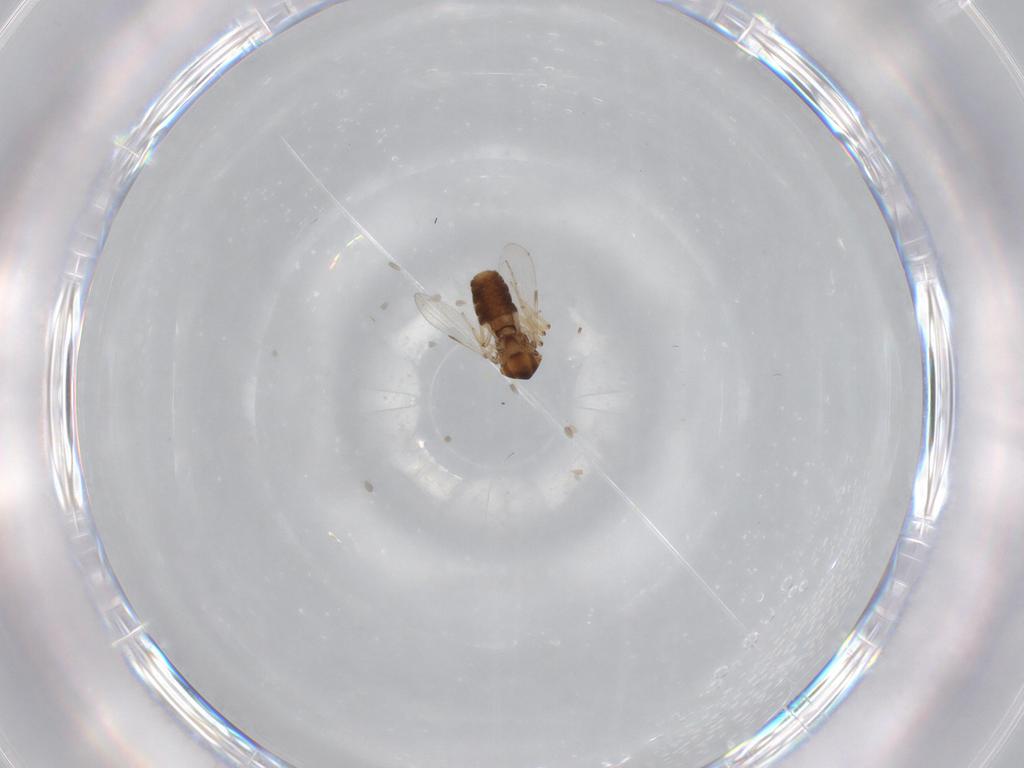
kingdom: Animalia
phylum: Arthropoda
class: Insecta
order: Diptera
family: Ceratopogonidae
